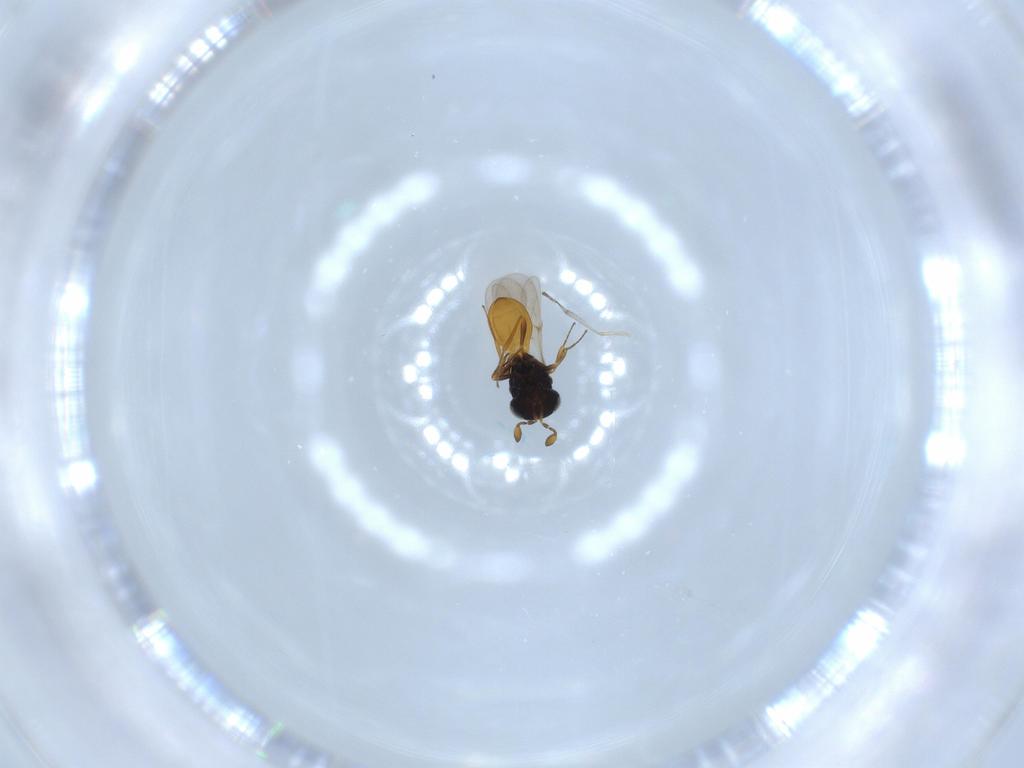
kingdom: Animalia
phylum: Arthropoda
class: Insecta
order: Hymenoptera
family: Scelionidae
